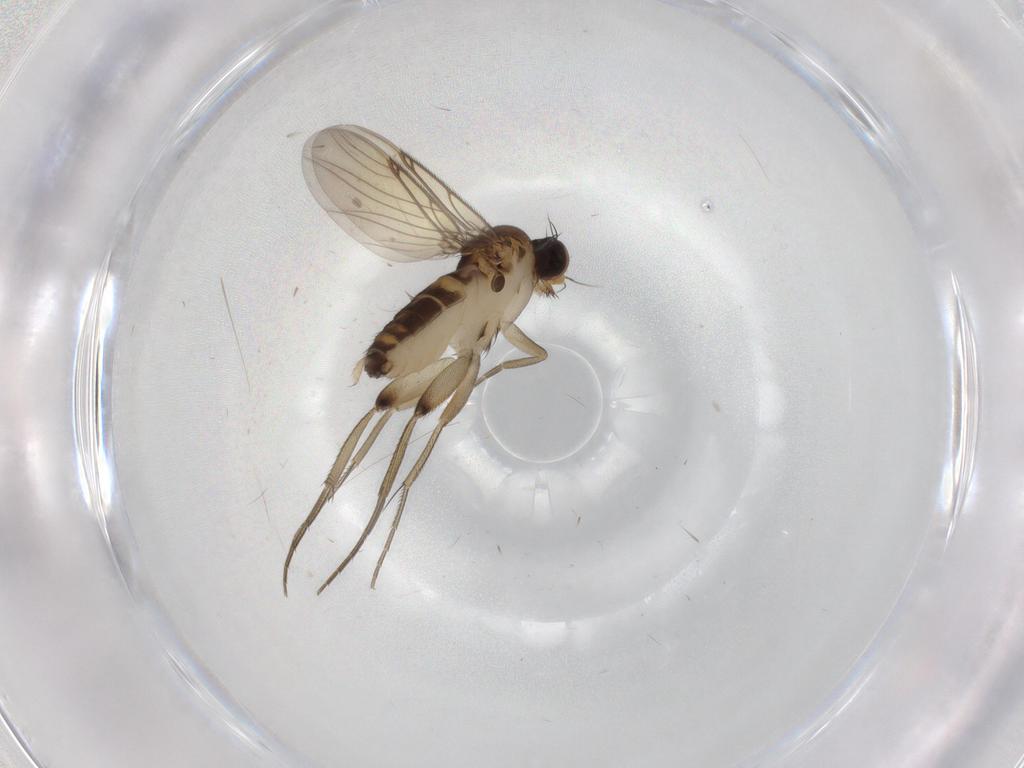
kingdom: Animalia
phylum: Arthropoda
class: Insecta
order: Diptera
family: Phoridae
